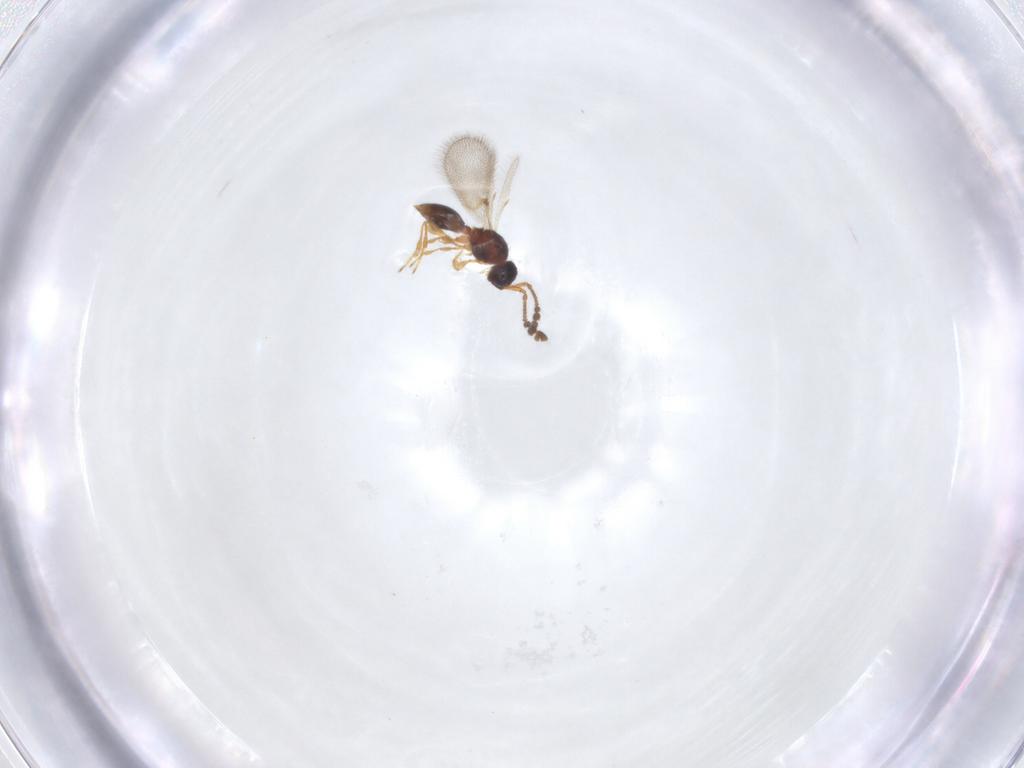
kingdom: Animalia
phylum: Arthropoda
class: Insecta
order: Hymenoptera
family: Diapriidae
